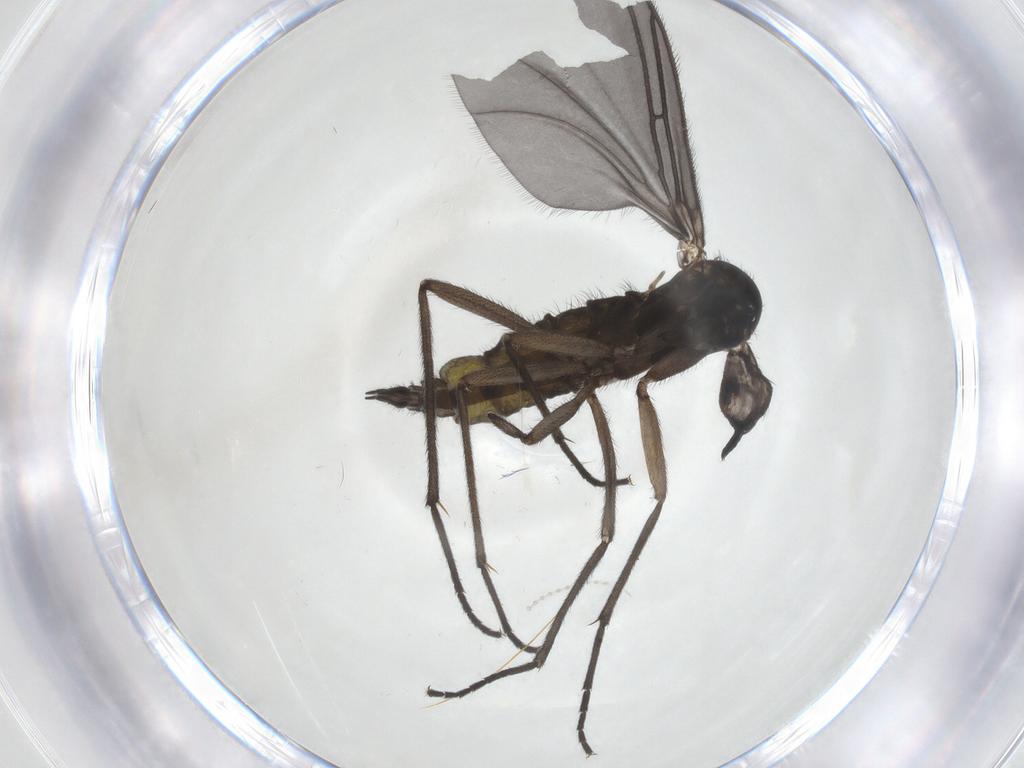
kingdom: Animalia
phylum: Arthropoda
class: Insecta
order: Diptera
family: Sciaridae
